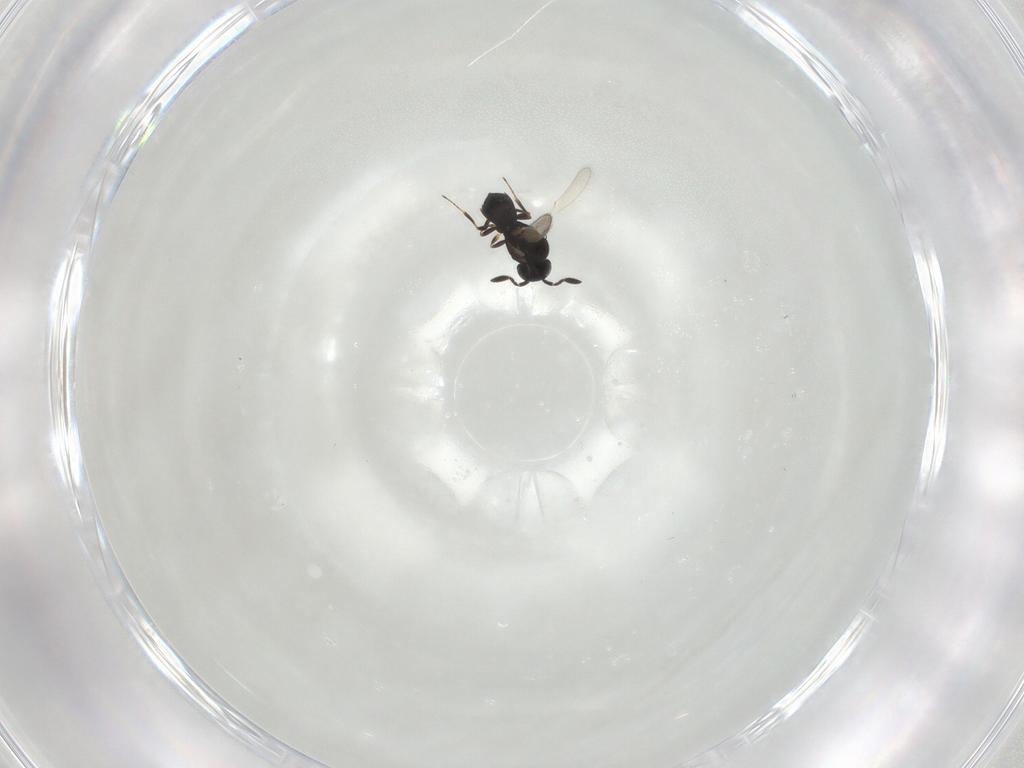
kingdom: Animalia
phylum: Arthropoda
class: Insecta
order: Hymenoptera
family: Scelionidae
